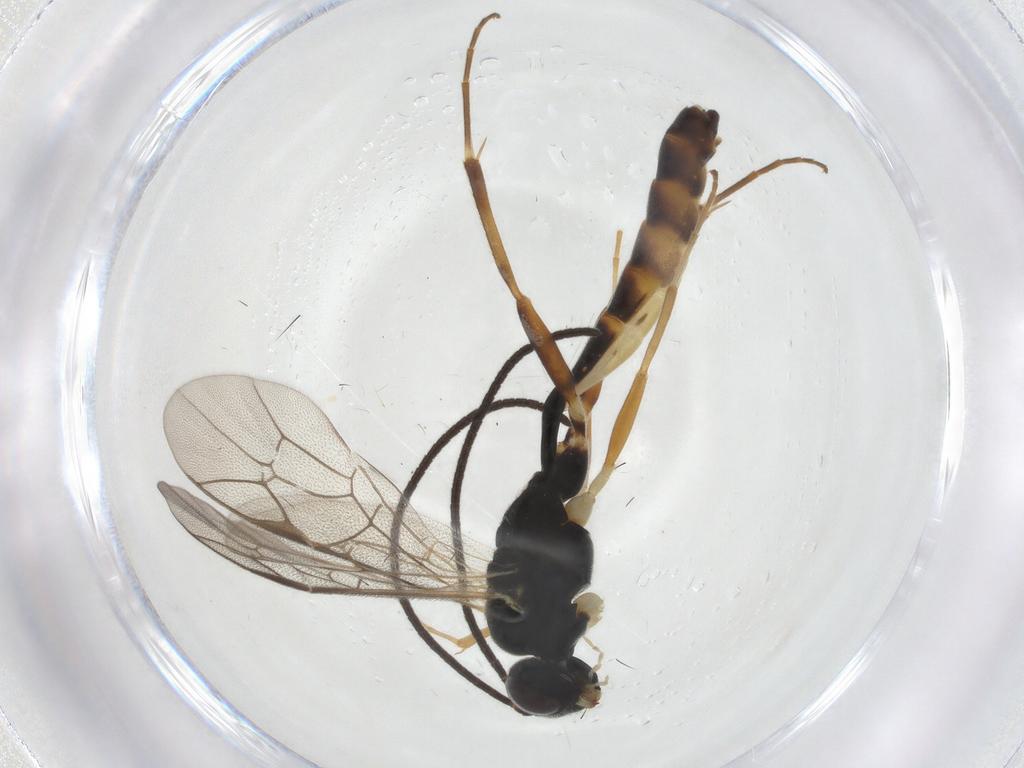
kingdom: Animalia
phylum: Arthropoda
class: Insecta
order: Hymenoptera
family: Ichneumonidae
